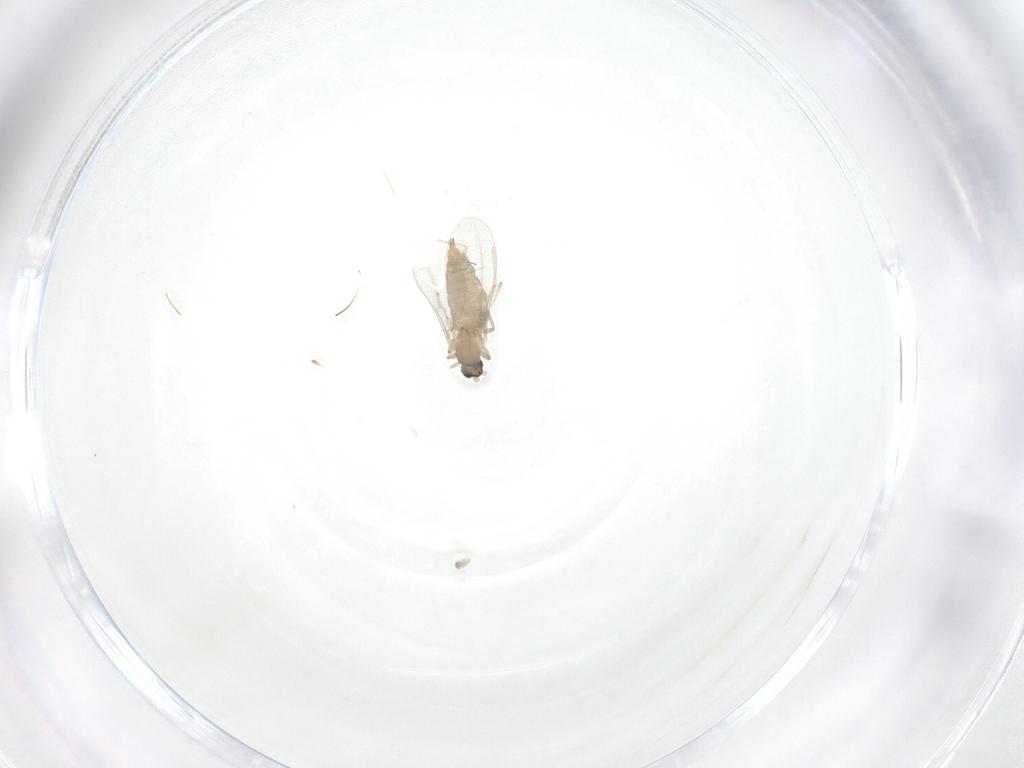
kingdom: Animalia
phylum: Arthropoda
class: Insecta
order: Diptera
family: Cecidomyiidae
